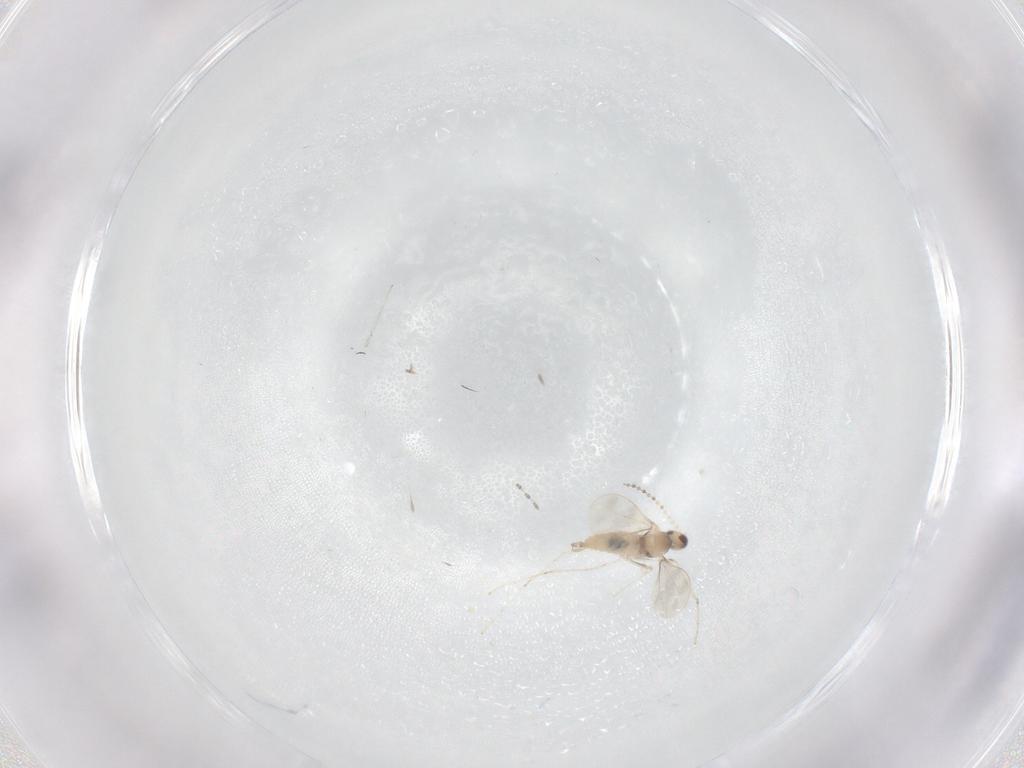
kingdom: Animalia
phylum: Arthropoda
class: Insecta
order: Diptera
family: Cecidomyiidae
